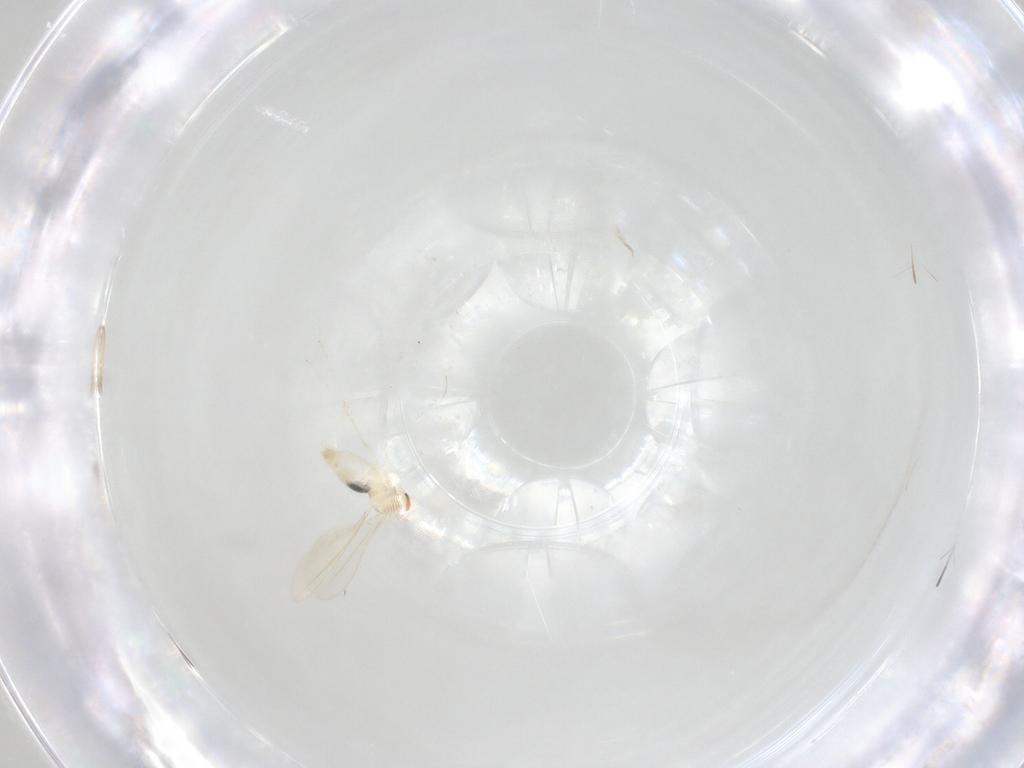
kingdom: Animalia
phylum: Arthropoda
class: Insecta
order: Diptera
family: Cecidomyiidae
